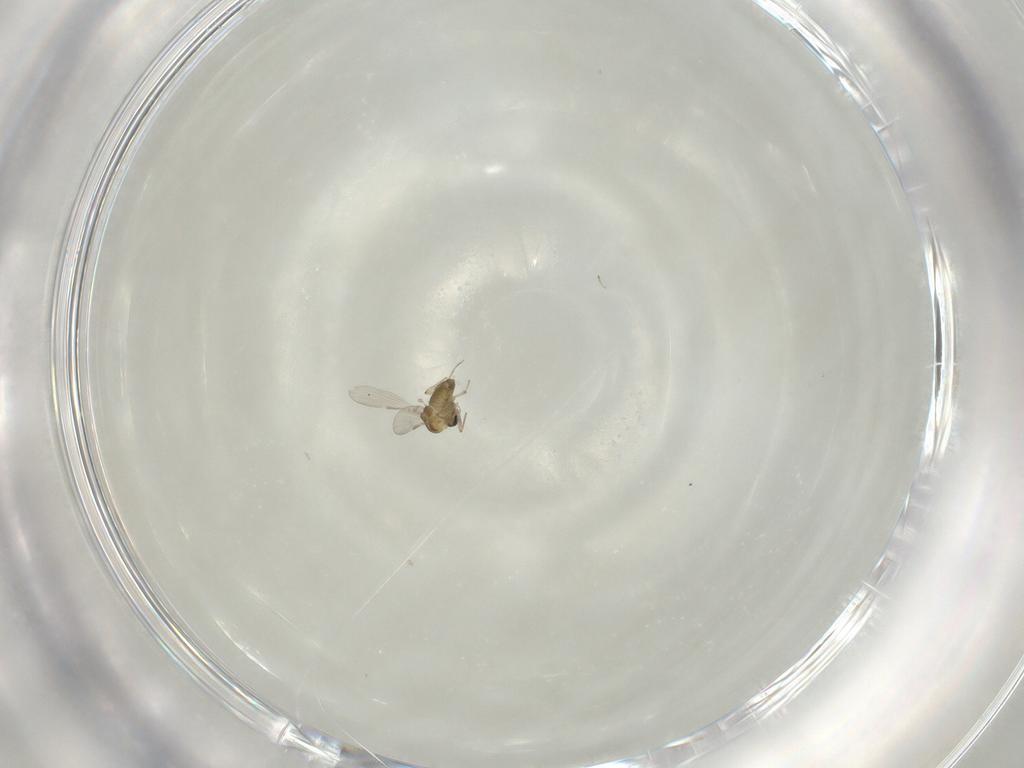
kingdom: Animalia
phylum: Arthropoda
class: Insecta
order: Diptera
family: Chironomidae
